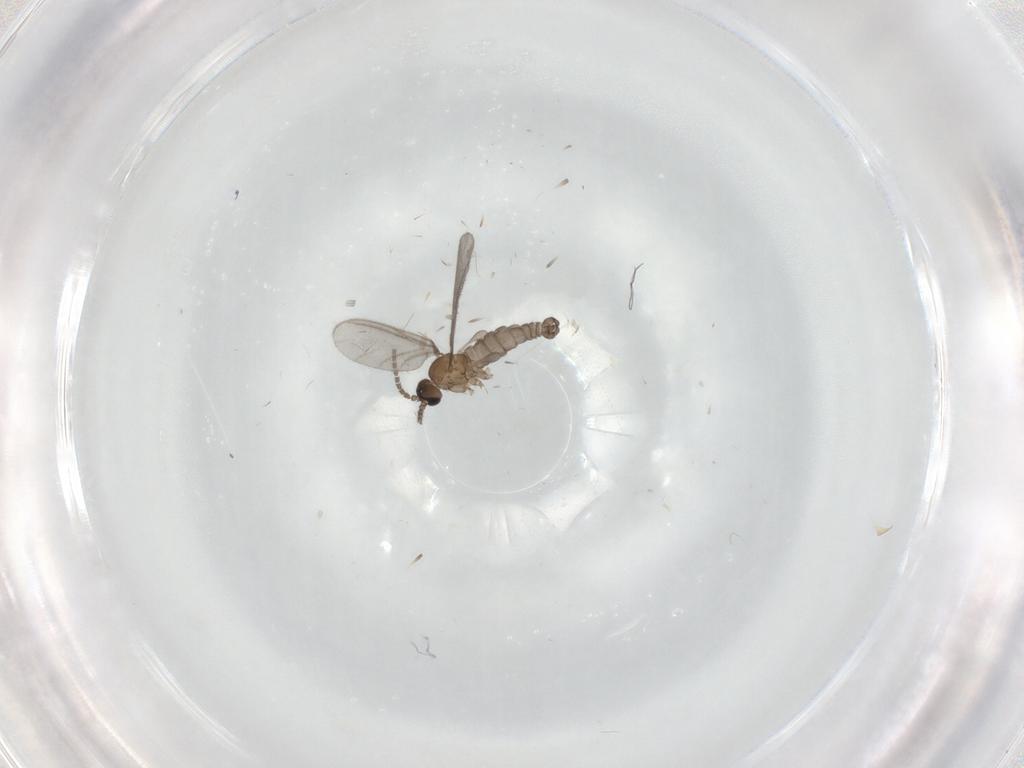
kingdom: Animalia
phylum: Arthropoda
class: Insecta
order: Diptera
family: Sciaridae
